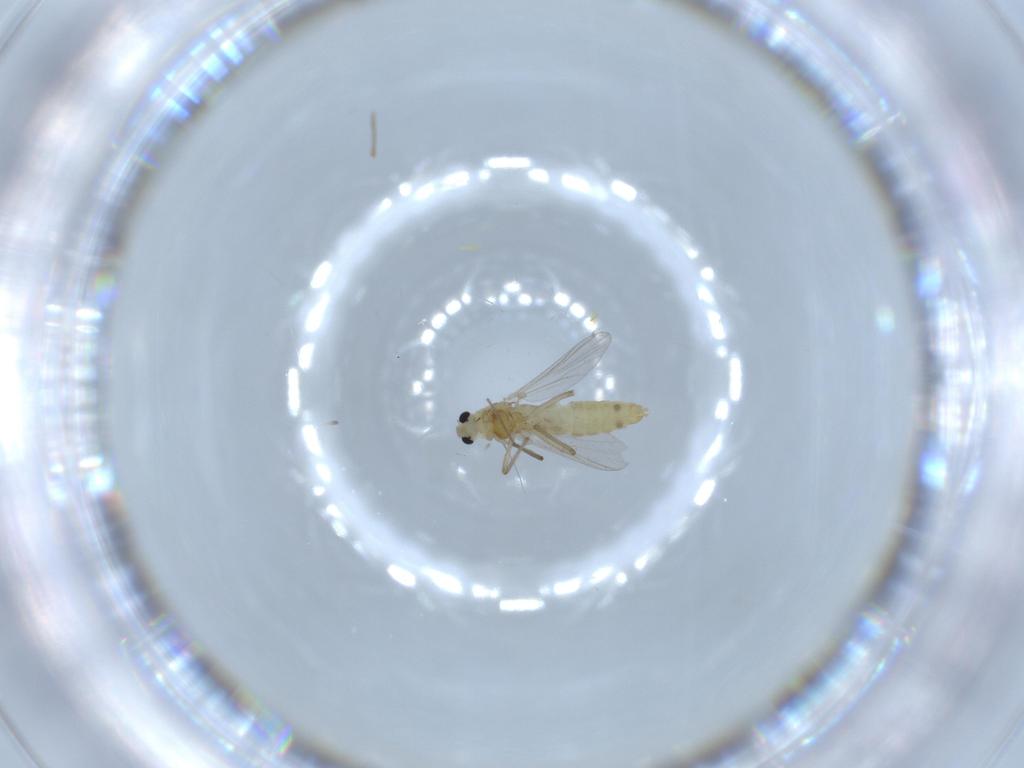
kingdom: Animalia
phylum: Arthropoda
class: Insecta
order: Diptera
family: Chironomidae
